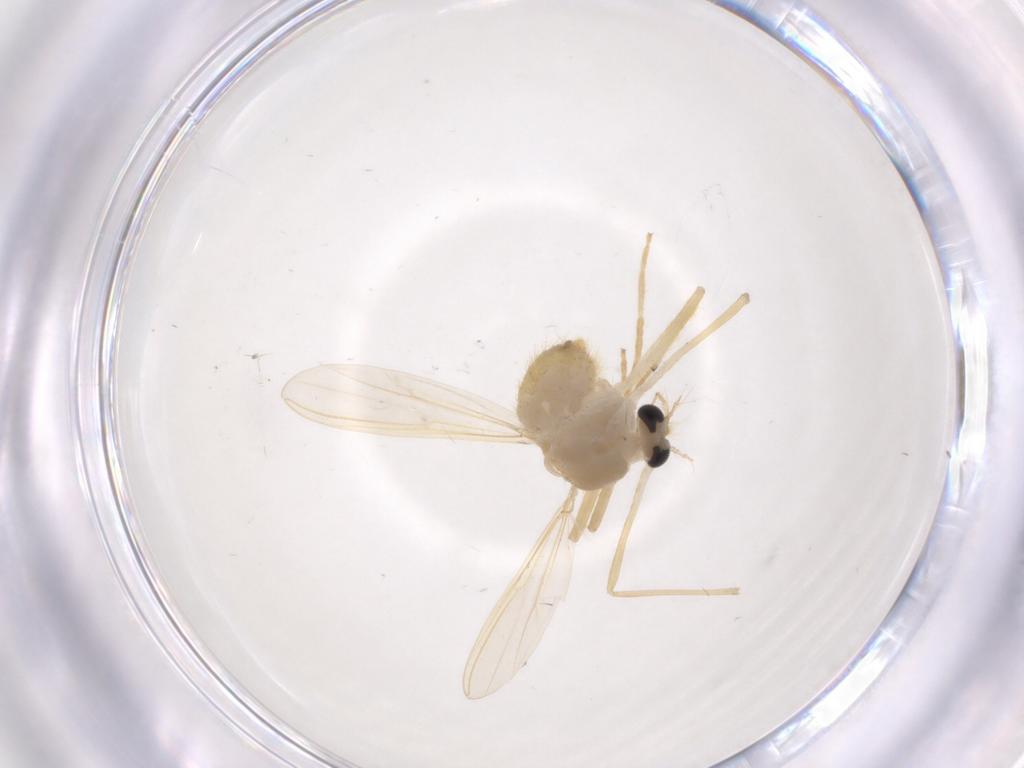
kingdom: Animalia
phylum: Arthropoda
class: Insecta
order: Diptera
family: Chironomidae
